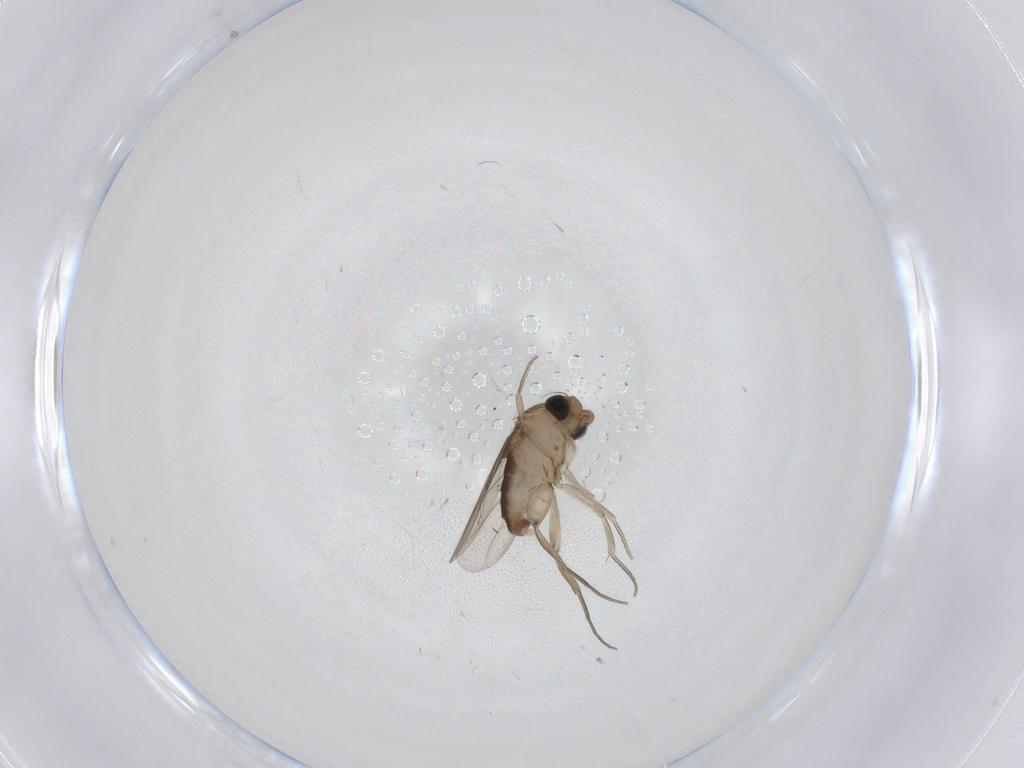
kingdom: Animalia
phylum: Arthropoda
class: Insecta
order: Diptera
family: Phoridae
